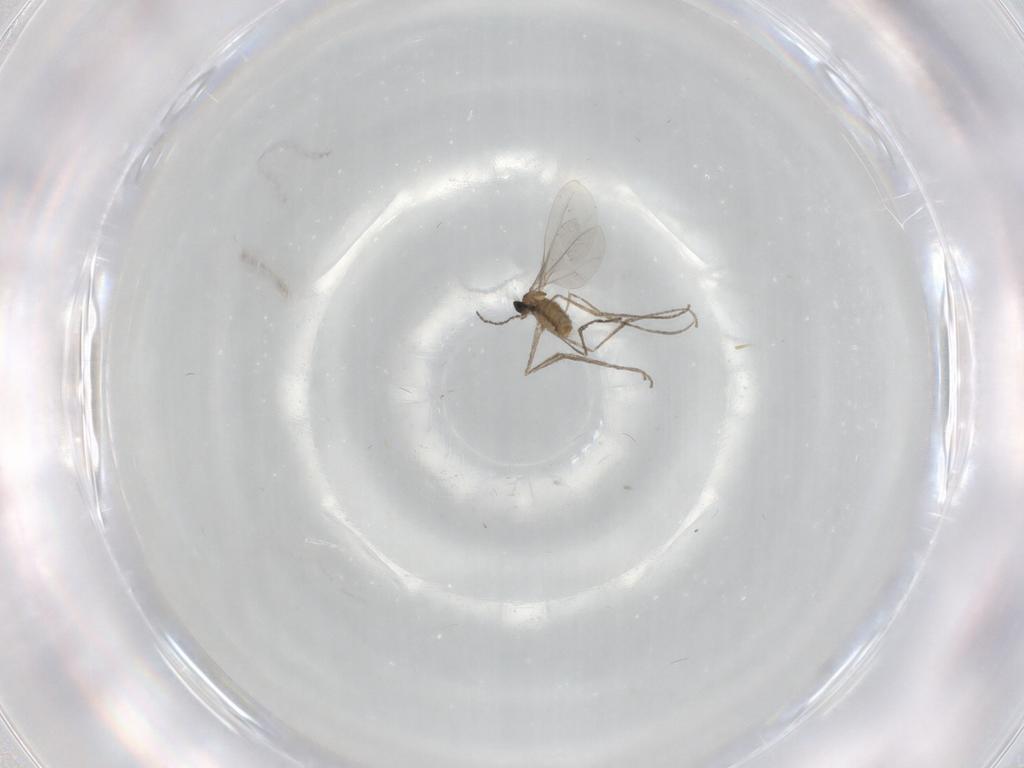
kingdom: Animalia
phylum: Arthropoda
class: Insecta
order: Diptera
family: Cecidomyiidae
